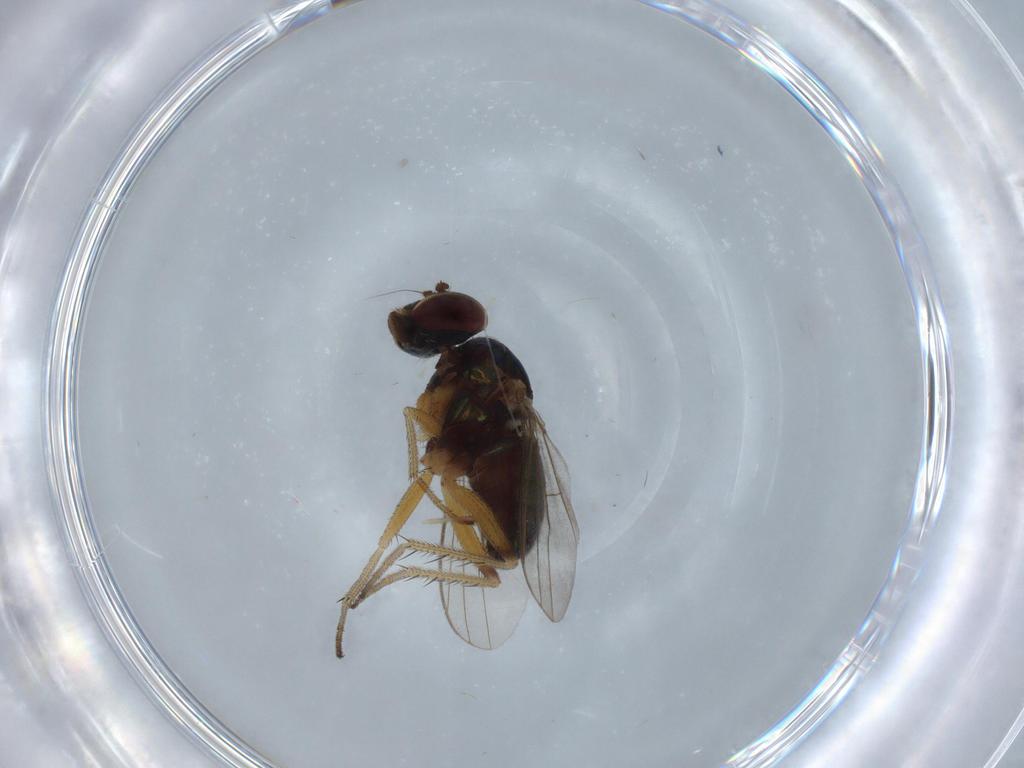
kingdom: Animalia
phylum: Arthropoda
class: Insecta
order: Diptera
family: Cecidomyiidae
